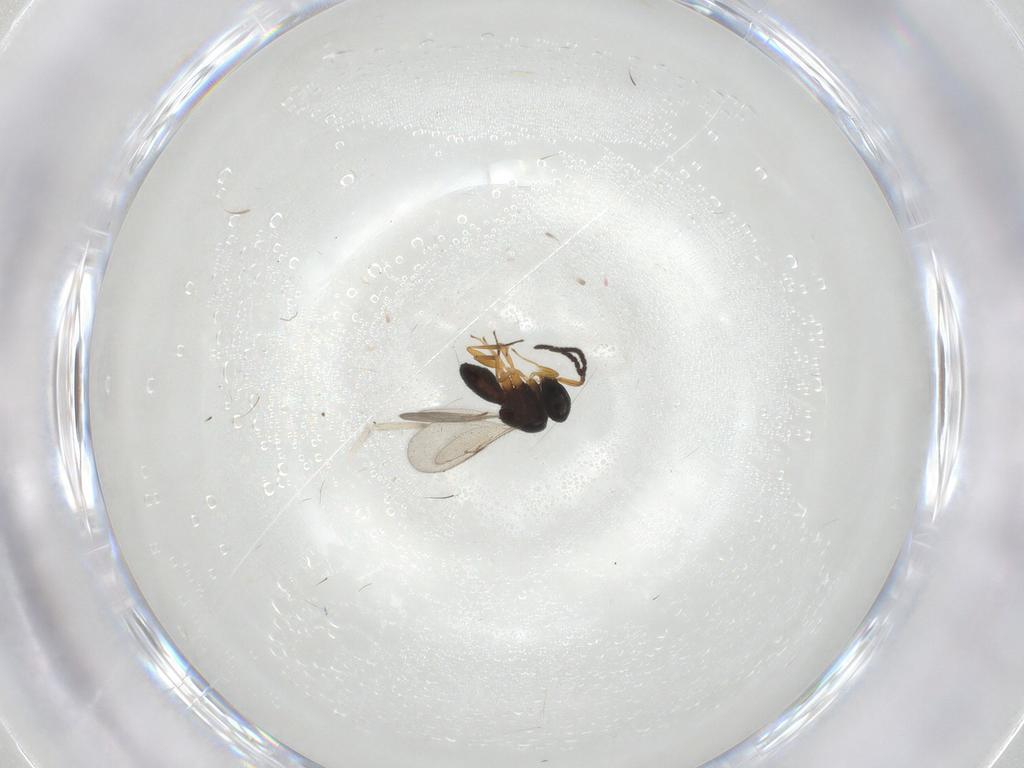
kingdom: Animalia
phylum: Arthropoda
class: Insecta
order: Hymenoptera
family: Scelionidae
